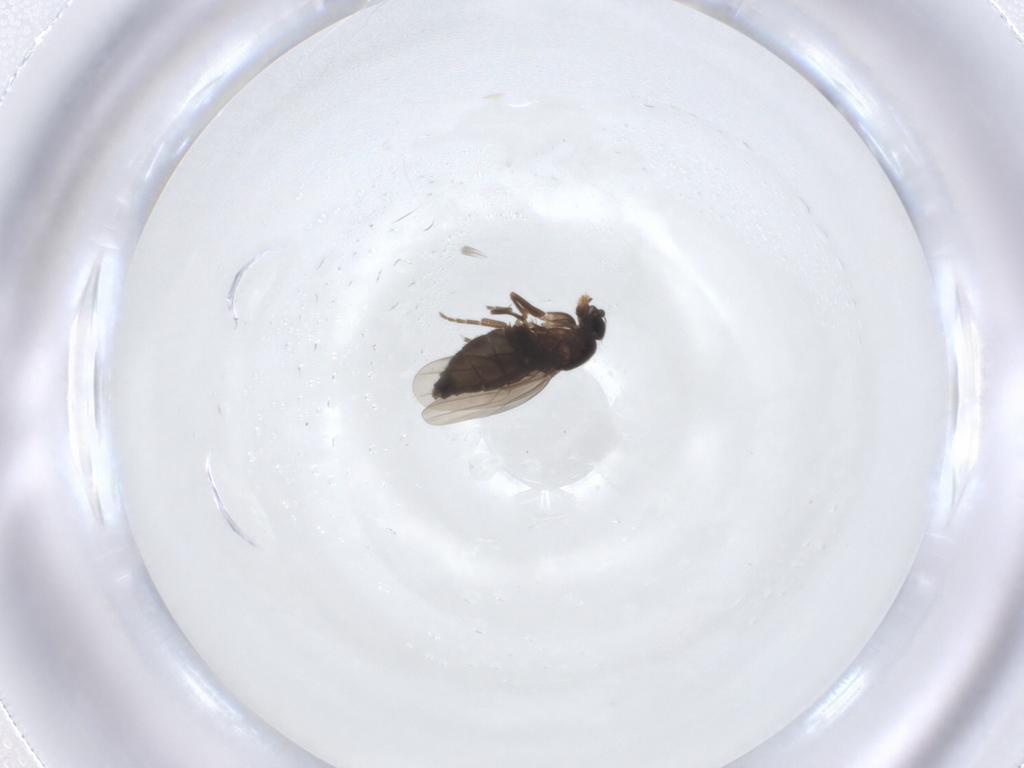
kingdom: Animalia
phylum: Arthropoda
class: Insecta
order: Diptera
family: Phoridae
